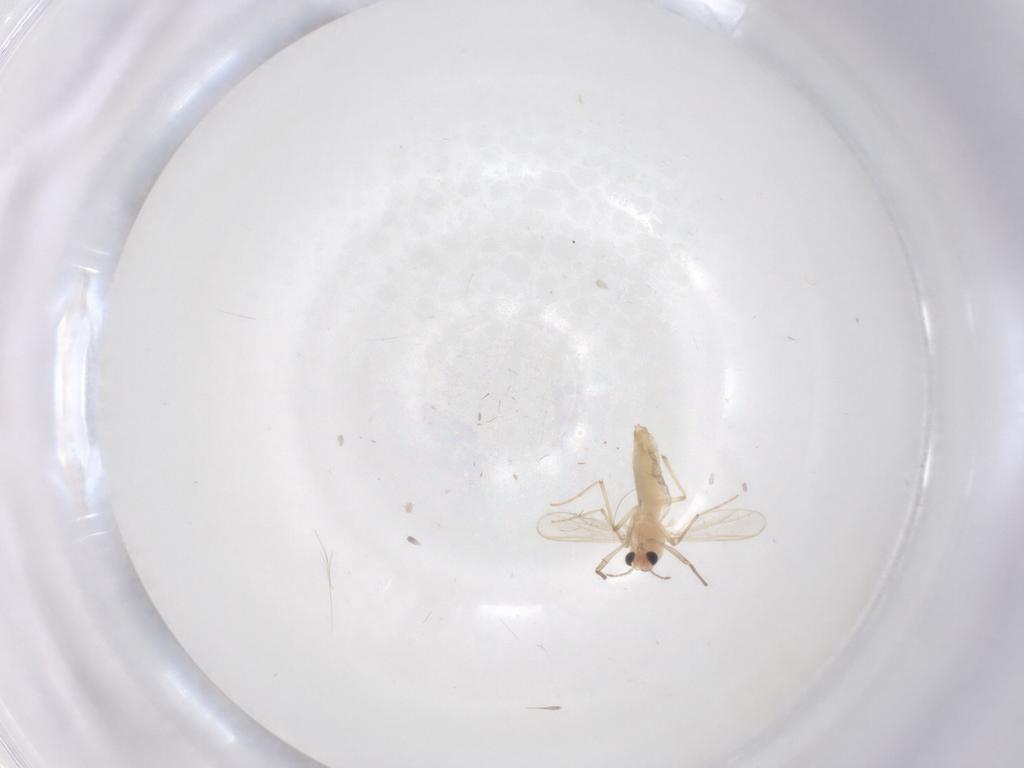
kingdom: Animalia
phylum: Arthropoda
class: Insecta
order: Diptera
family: Chironomidae
